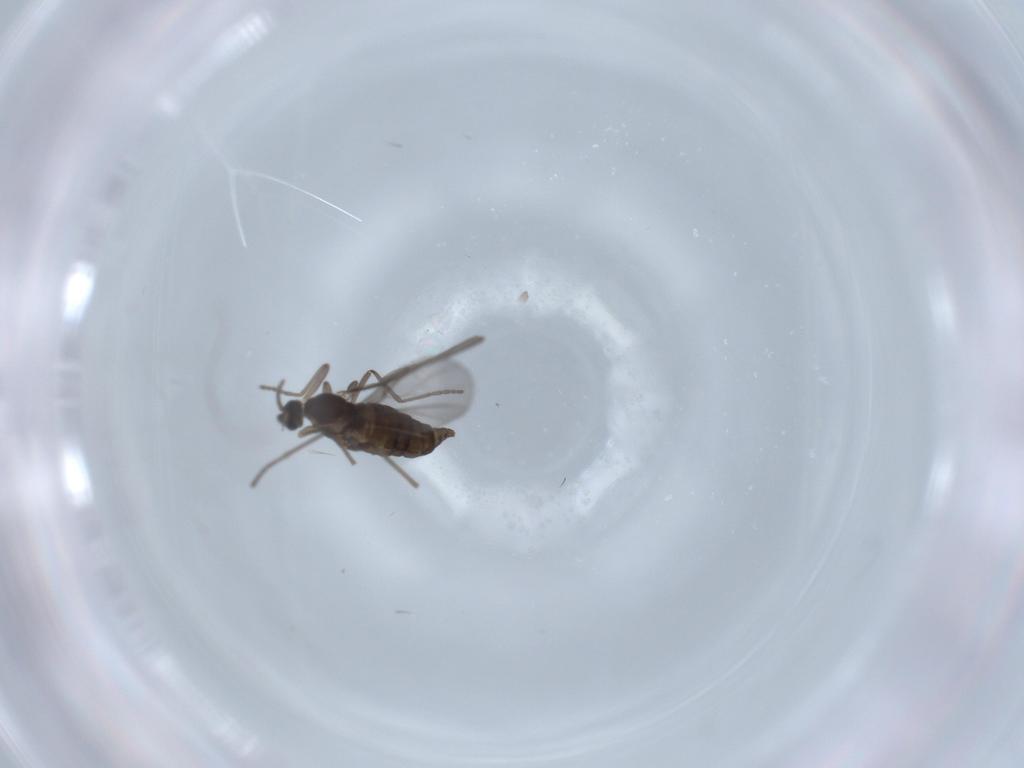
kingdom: Animalia
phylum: Arthropoda
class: Insecta
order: Diptera
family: Cecidomyiidae
